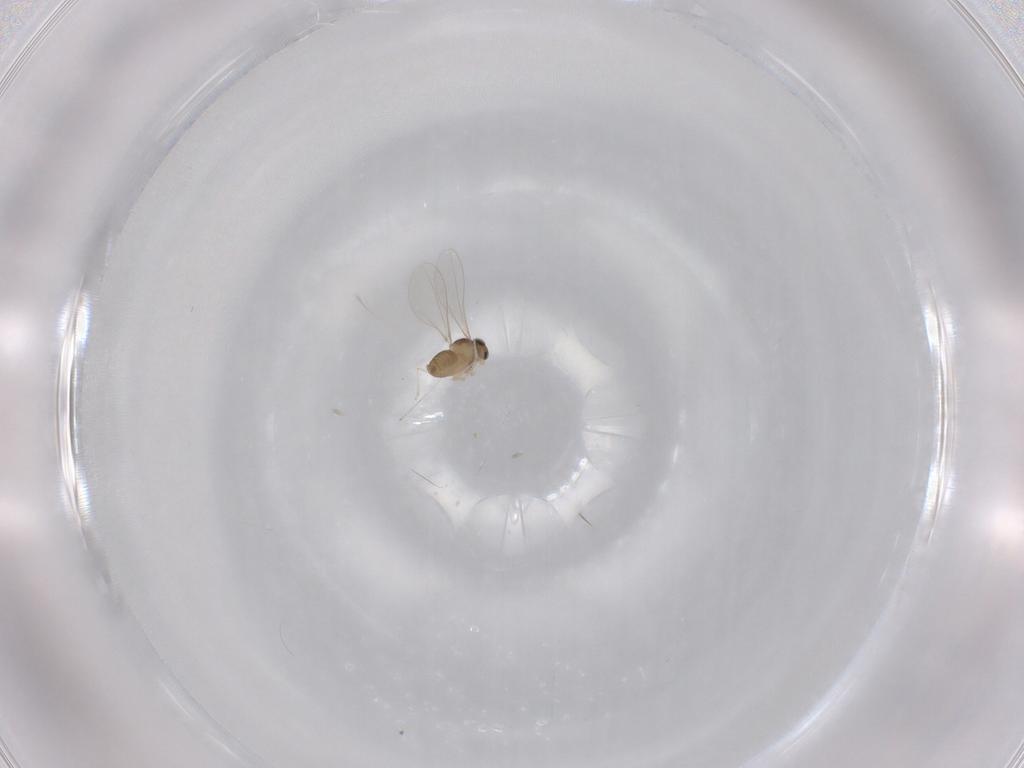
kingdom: Animalia
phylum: Arthropoda
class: Insecta
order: Diptera
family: Cecidomyiidae
